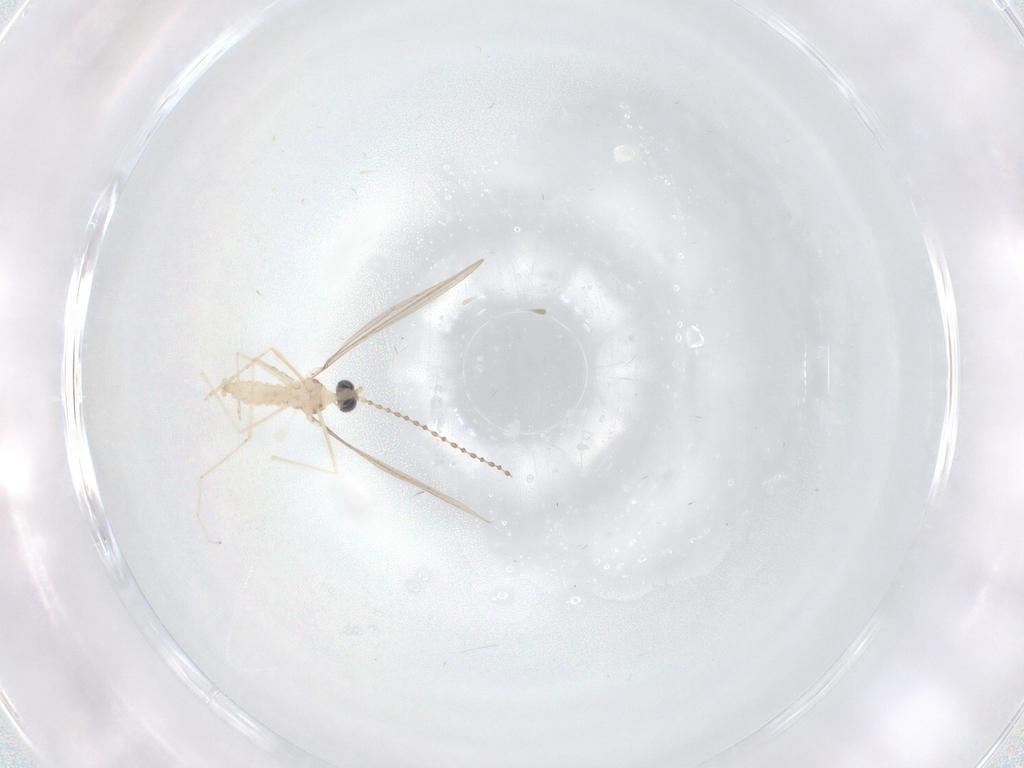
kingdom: Animalia
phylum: Arthropoda
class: Insecta
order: Diptera
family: Cecidomyiidae
